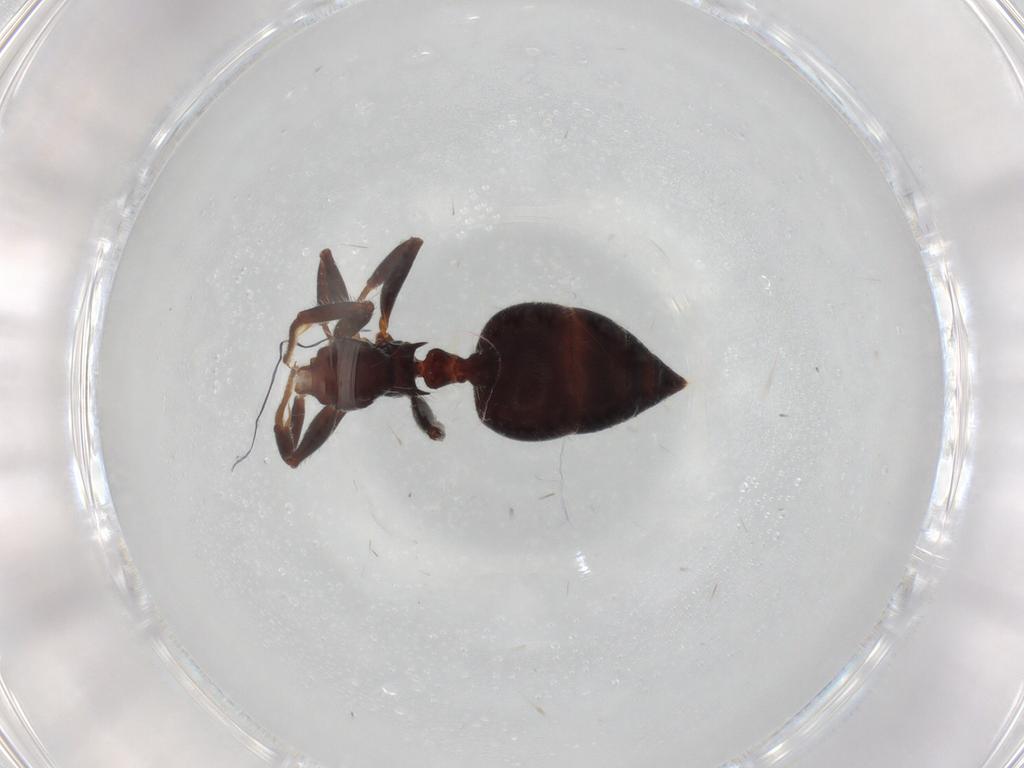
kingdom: Animalia
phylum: Arthropoda
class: Insecta
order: Hymenoptera
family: Formicidae
